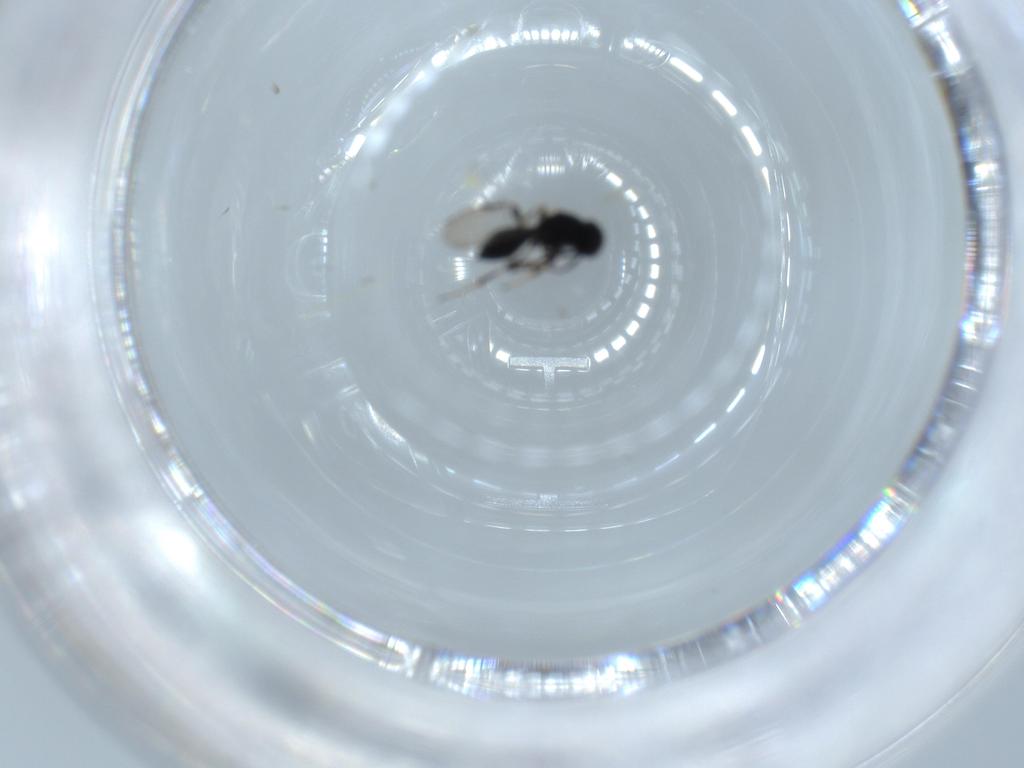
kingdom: Animalia
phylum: Arthropoda
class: Insecta
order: Hymenoptera
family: Platygastridae
